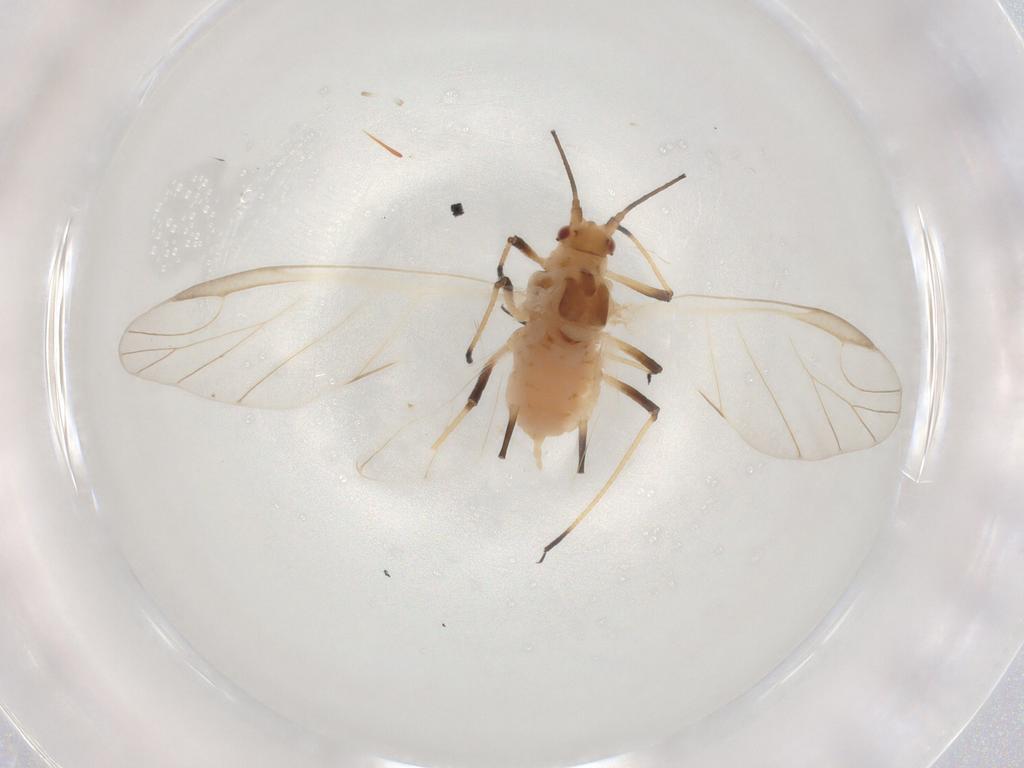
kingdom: Animalia
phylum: Arthropoda
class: Insecta
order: Hemiptera
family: Aphididae
